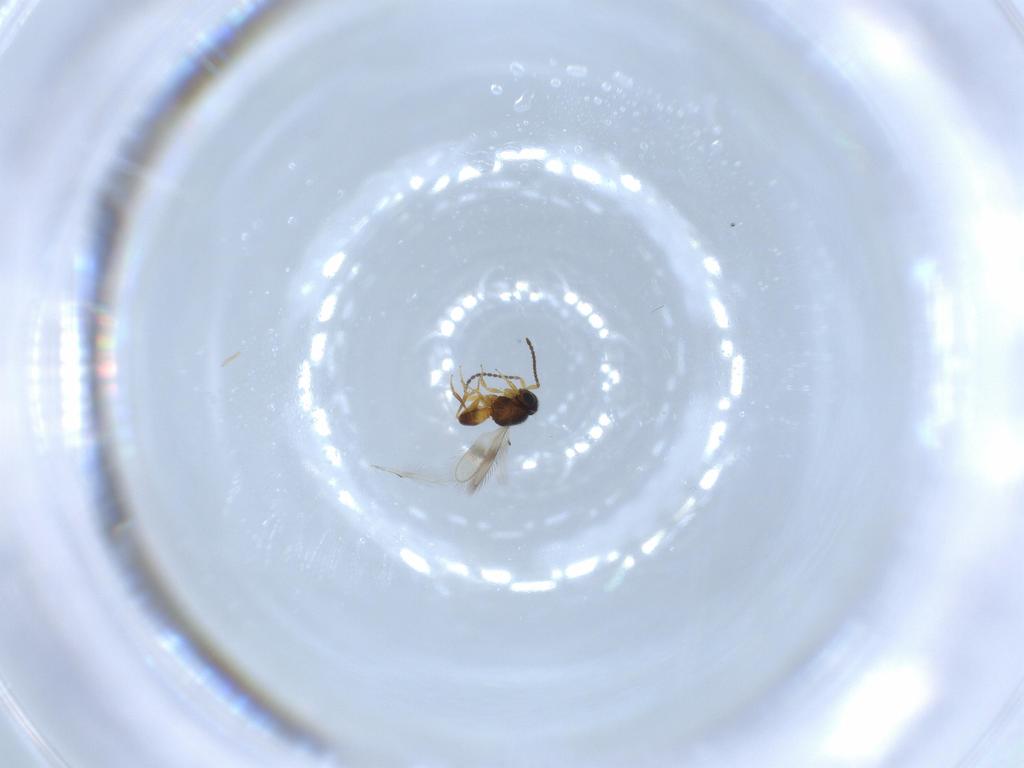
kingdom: Animalia
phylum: Arthropoda
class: Insecta
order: Hymenoptera
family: Scelionidae
